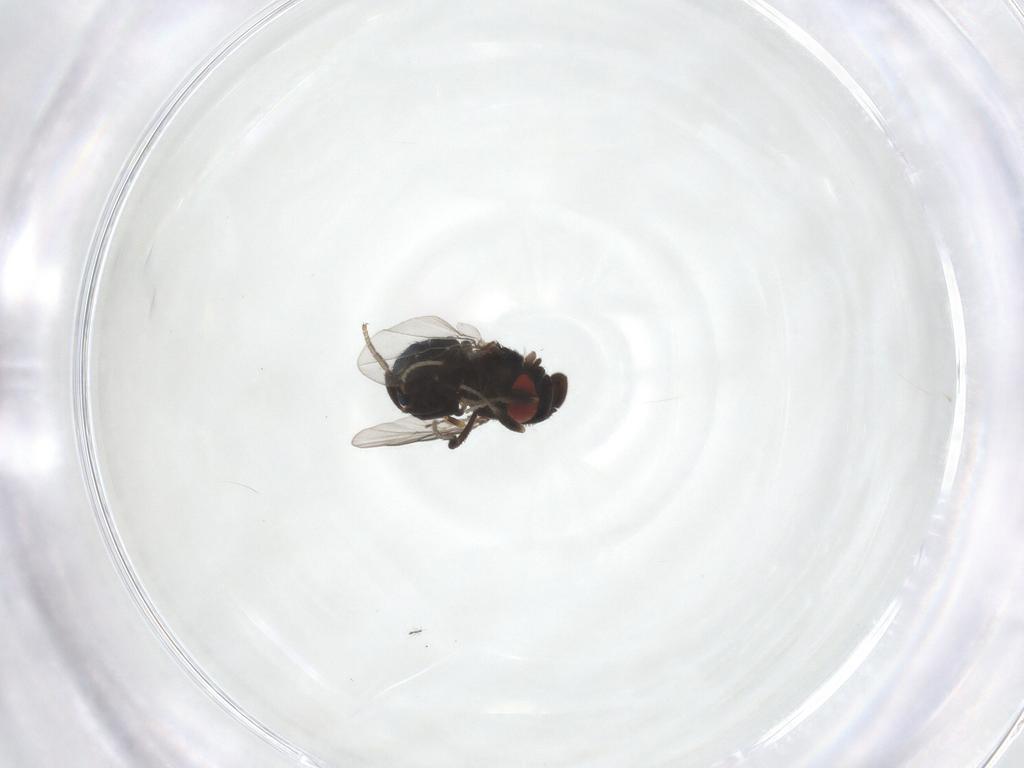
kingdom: Animalia
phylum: Arthropoda
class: Insecta
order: Diptera
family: Cryptochetidae
